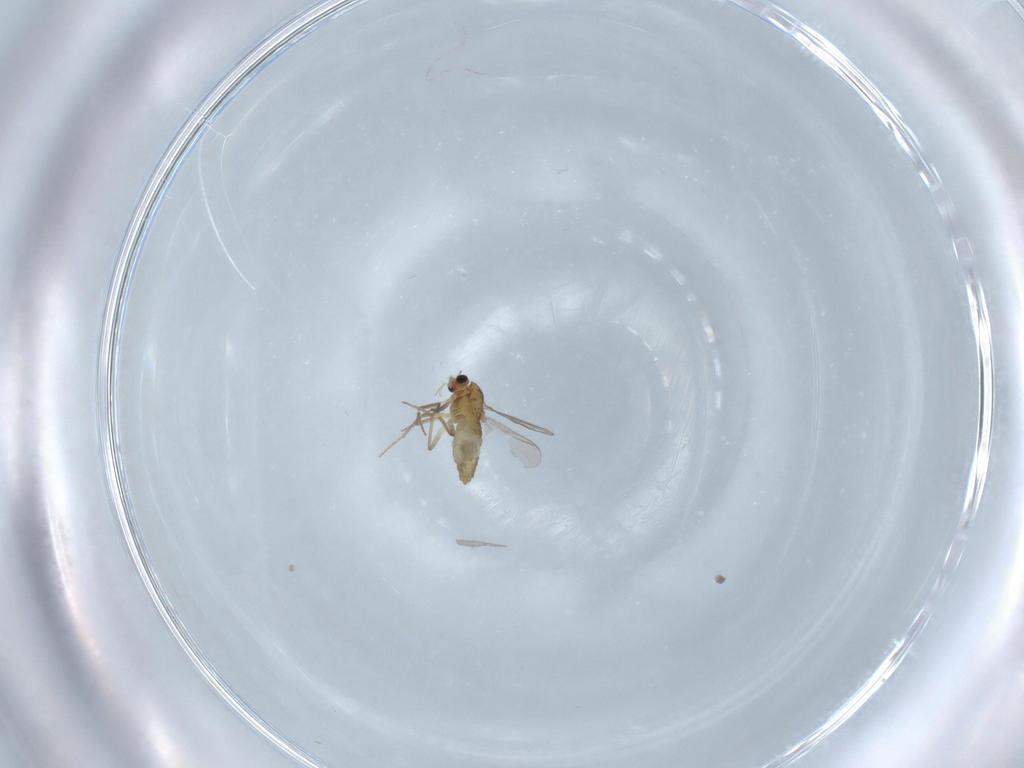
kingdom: Animalia
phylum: Arthropoda
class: Insecta
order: Diptera
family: Chironomidae
